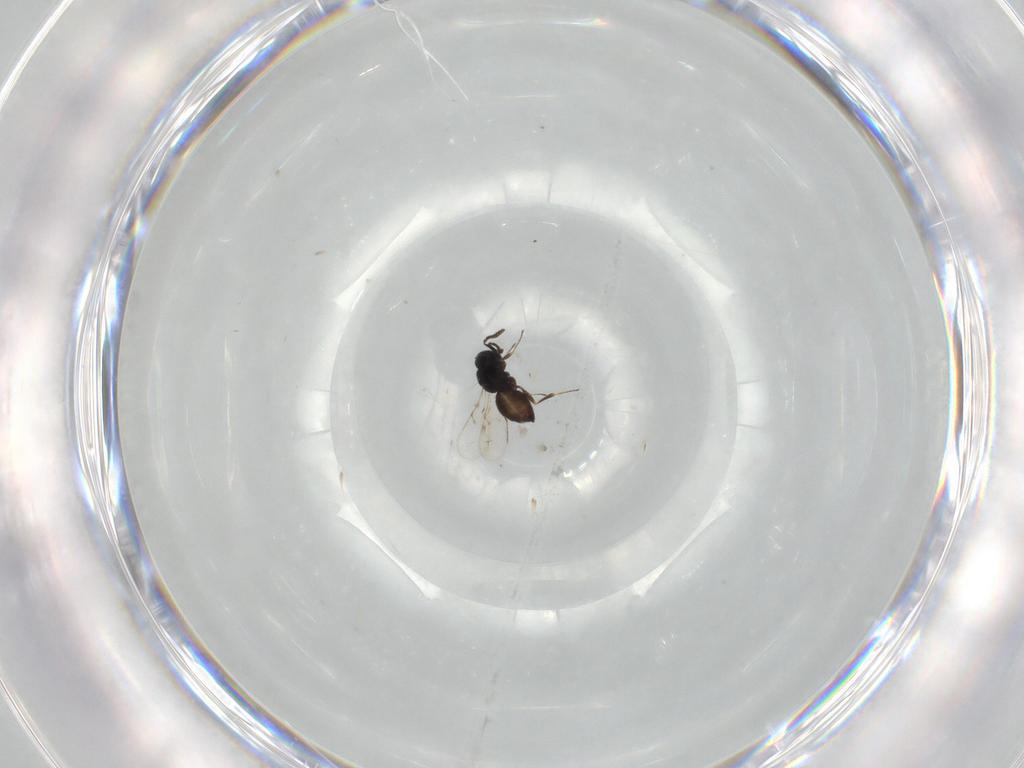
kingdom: Animalia
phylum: Arthropoda
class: Insecta
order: Hymenoptera
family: Scelionidae
